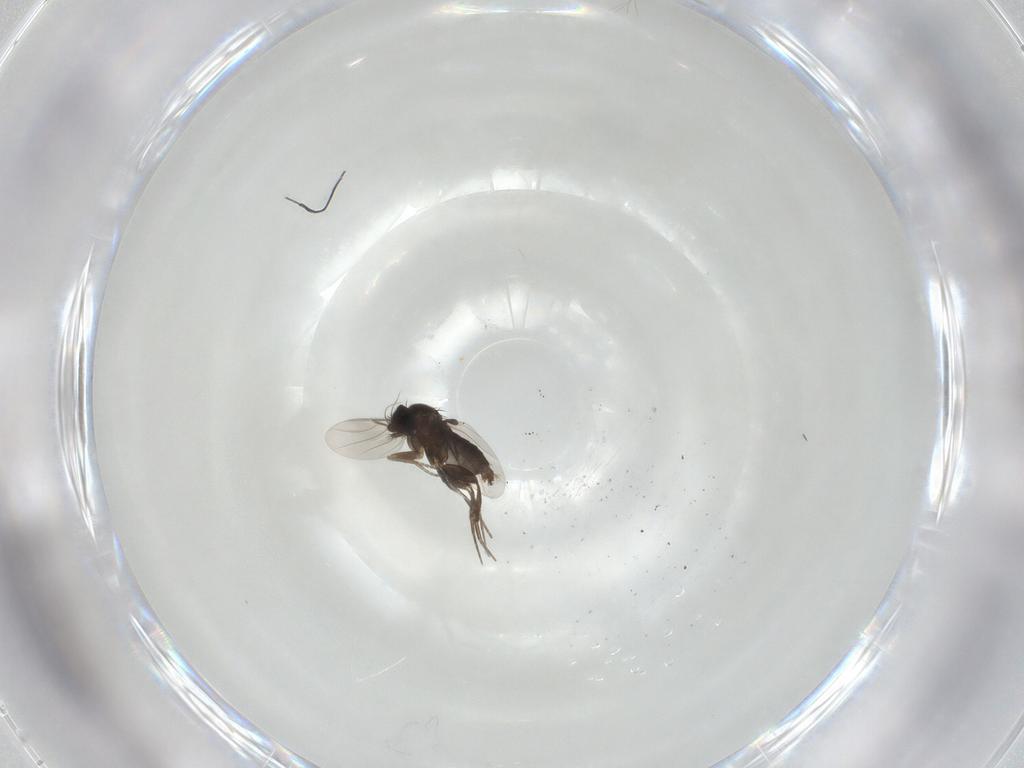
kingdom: Animalia
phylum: Arthropoda
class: Insecta
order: Diptera
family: Phoridae
